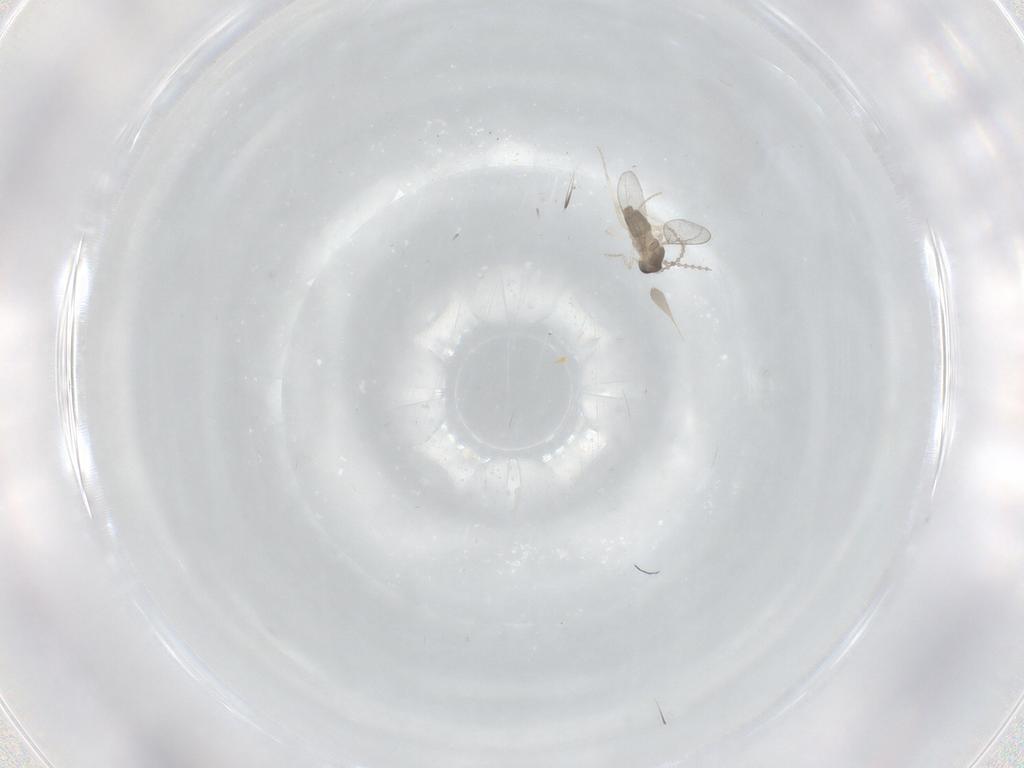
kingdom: Animalia
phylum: Arthropoda
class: Insecta
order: Diptera
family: Cecidomyiidae
